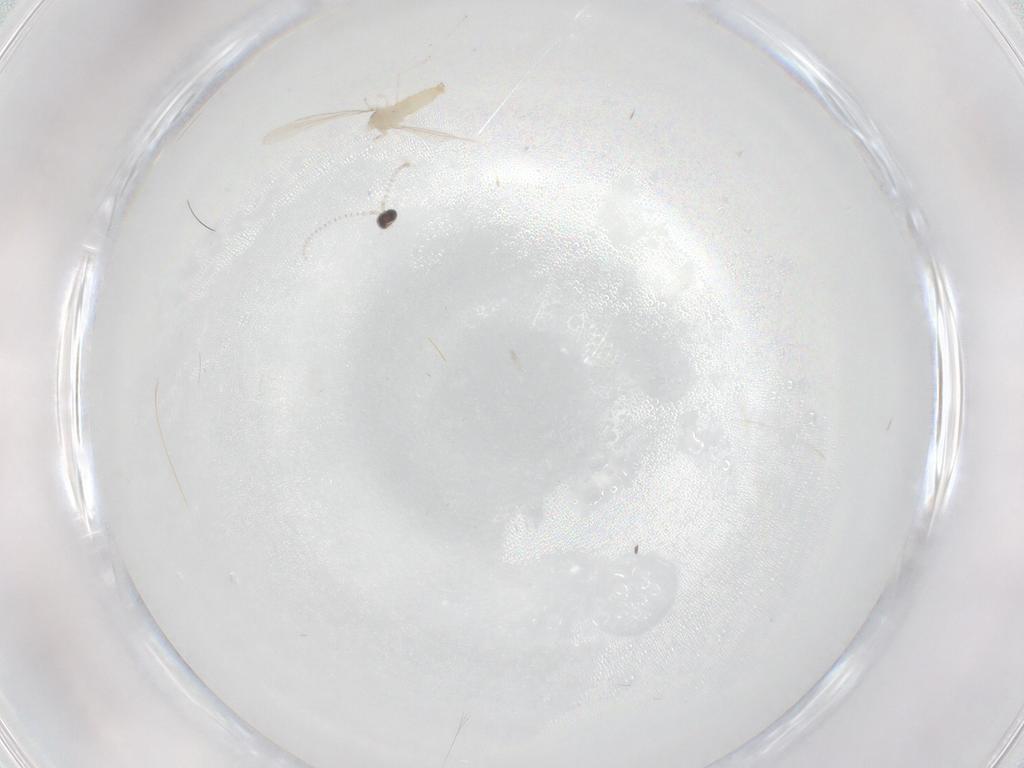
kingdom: Animalia
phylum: Arthropoda
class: Insecta
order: Diptera
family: Cecidomyiidae
